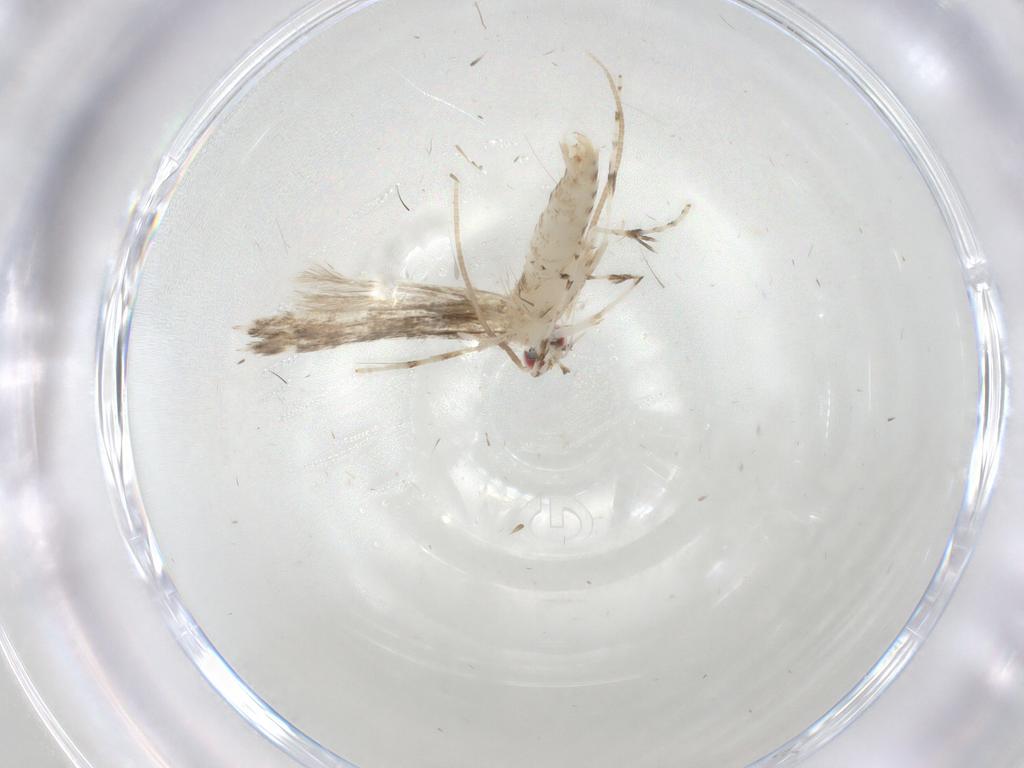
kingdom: Animalia
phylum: Arthropoda
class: Insecta
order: Lepidoptera
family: Gracillariidae
